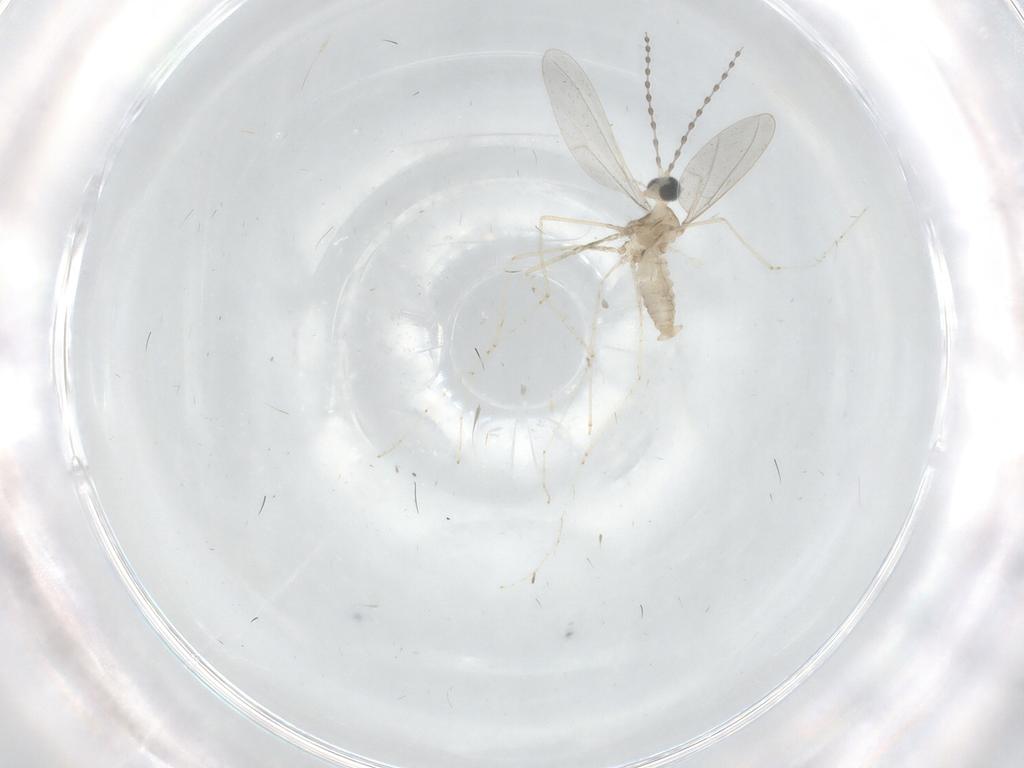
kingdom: Animalia
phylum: Arthropoda
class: Insecta
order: Diptera
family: Cecidomyiidae
